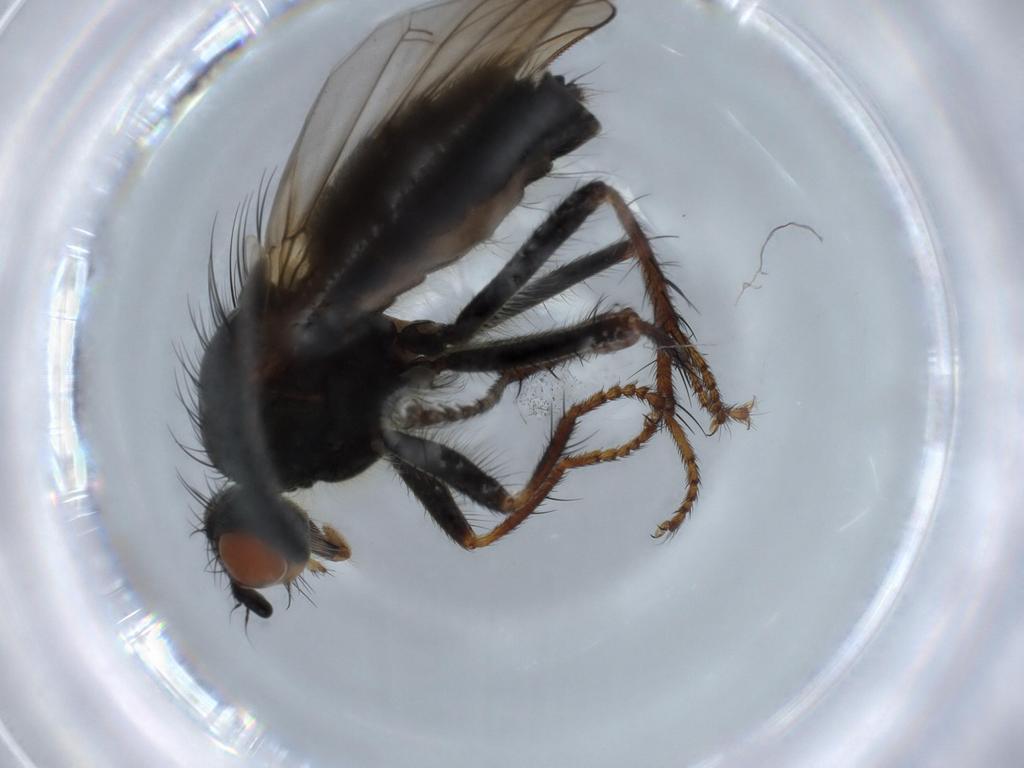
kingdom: Animalia
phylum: Arthropoda
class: Insecta
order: Diptera
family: Scathophagidae
